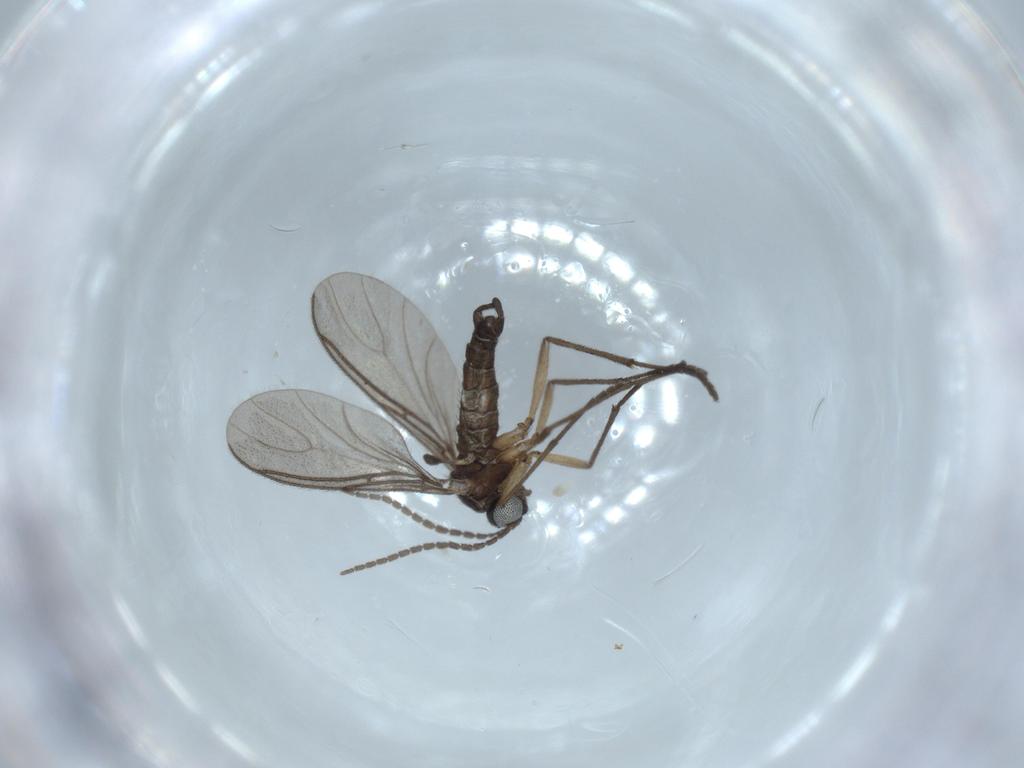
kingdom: Animalia
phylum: Arthropoda
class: Insecta
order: Diptera
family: Sciaridae
